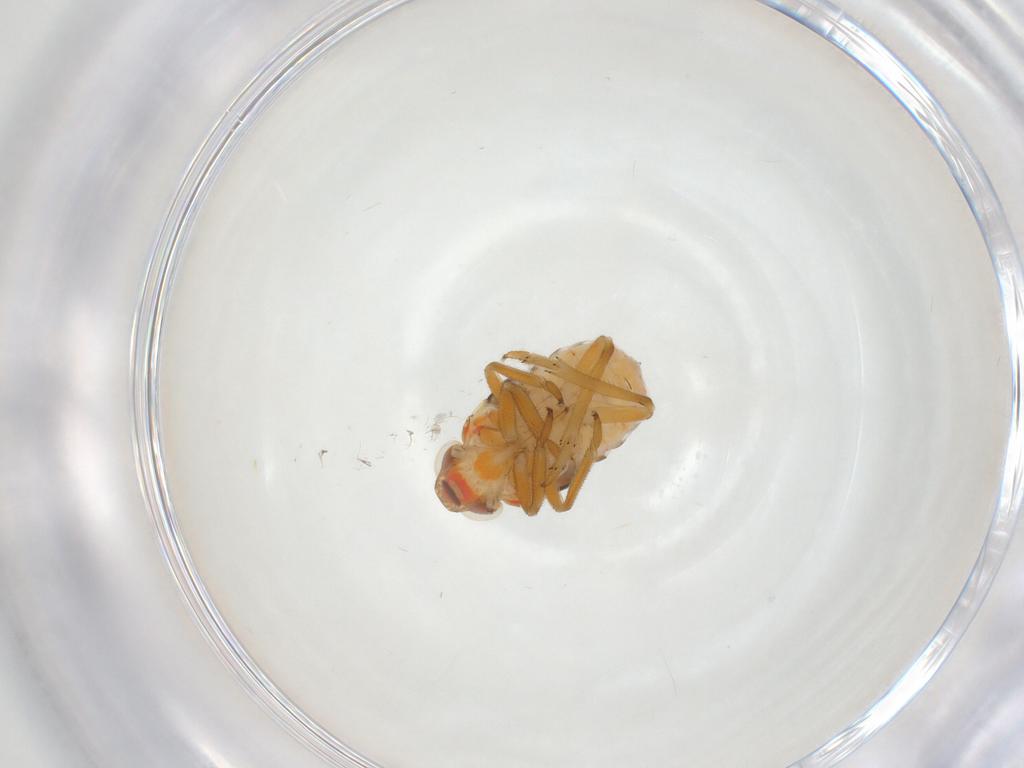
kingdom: Animalia
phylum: Arthropoda
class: Insecta
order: Hemiptera
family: Issidae
